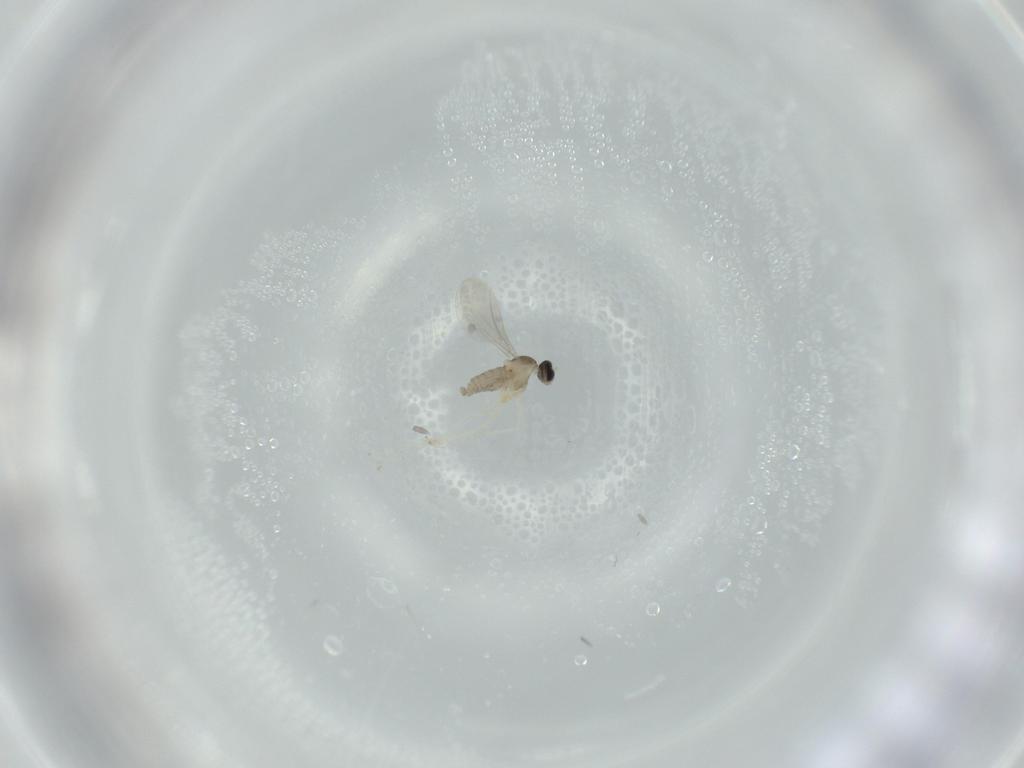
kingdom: Animalia
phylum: Arthropoda
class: Insecta
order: Diptera
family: Cecidomyiidae
